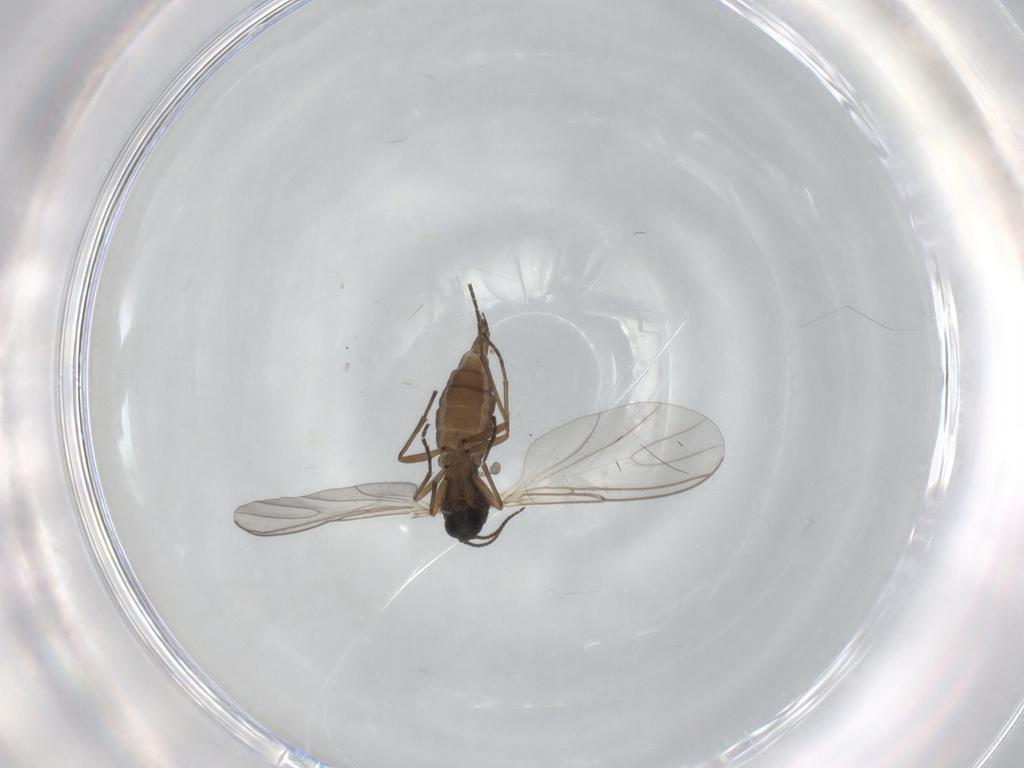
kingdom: Animalia
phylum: Arthropoda
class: Insecta
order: Diptera
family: Sciaridae
